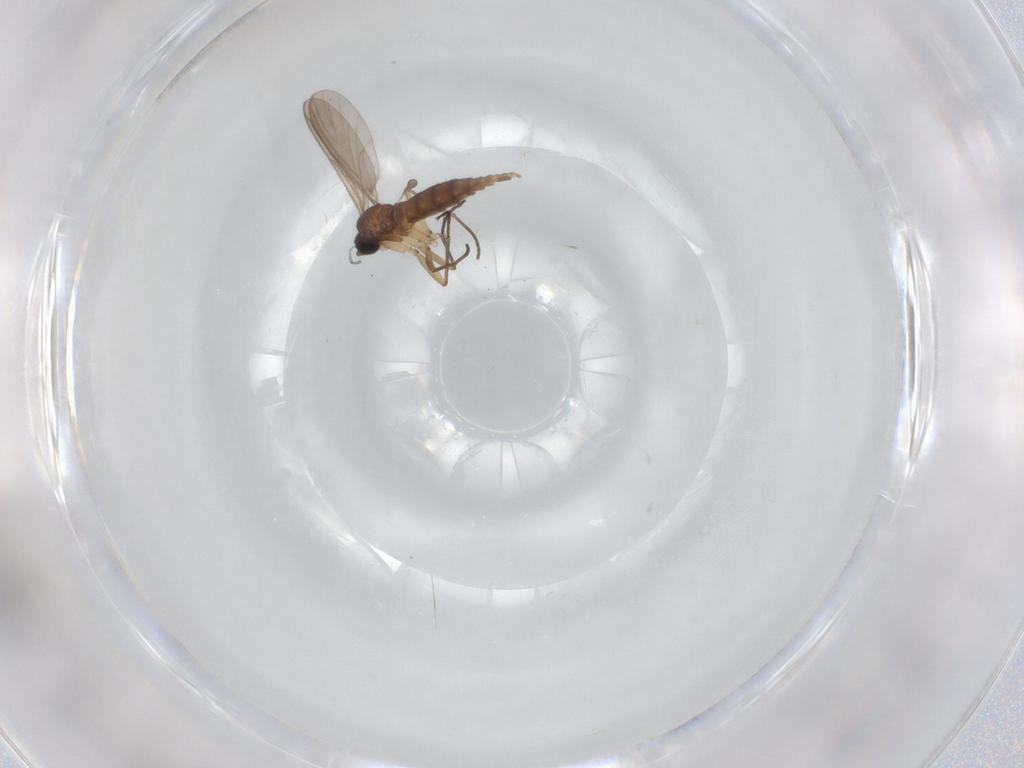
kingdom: Animalia
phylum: Arthropoda
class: Insecta
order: Diptera
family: Sciaridae
